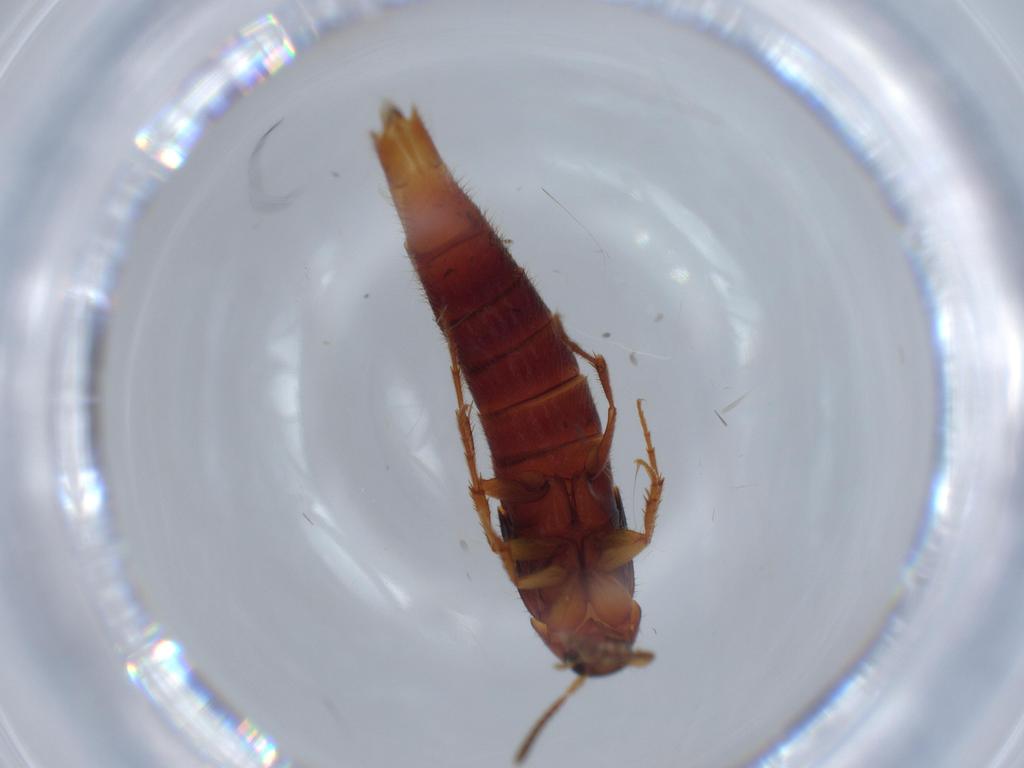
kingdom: Animalia
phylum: Arthropoda
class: Insecta
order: Coleoptera
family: Staphylinidae
